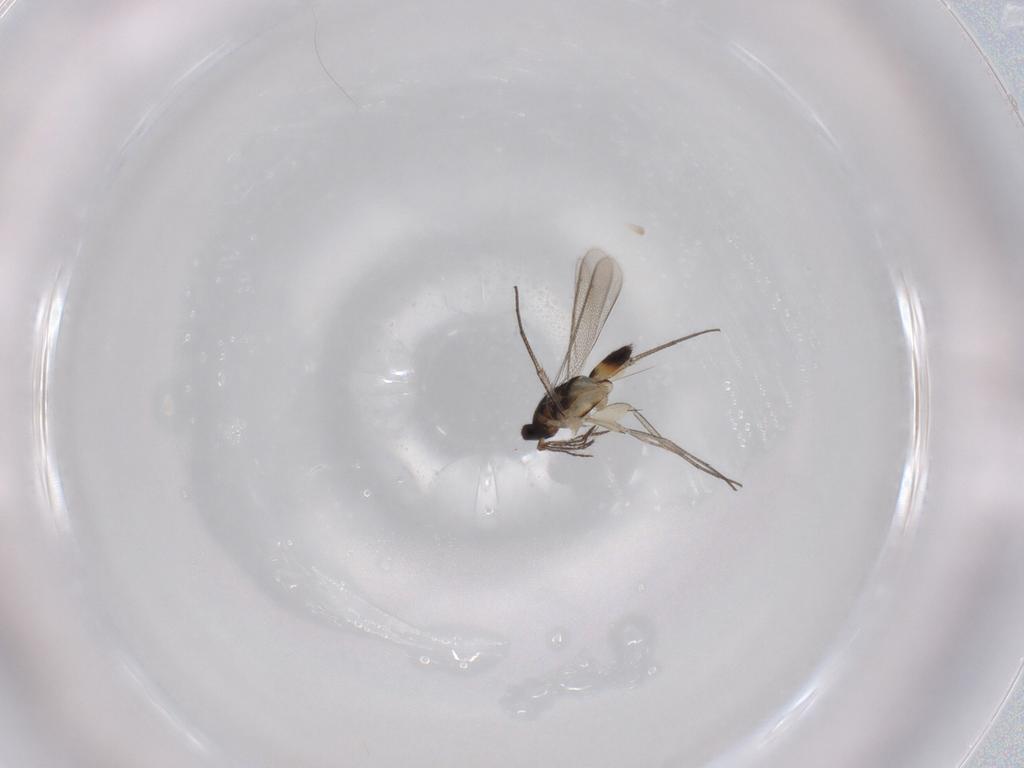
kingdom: Animalia
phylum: Arthropoda
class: Insecta
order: Hymenoptera
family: Eulophidae
